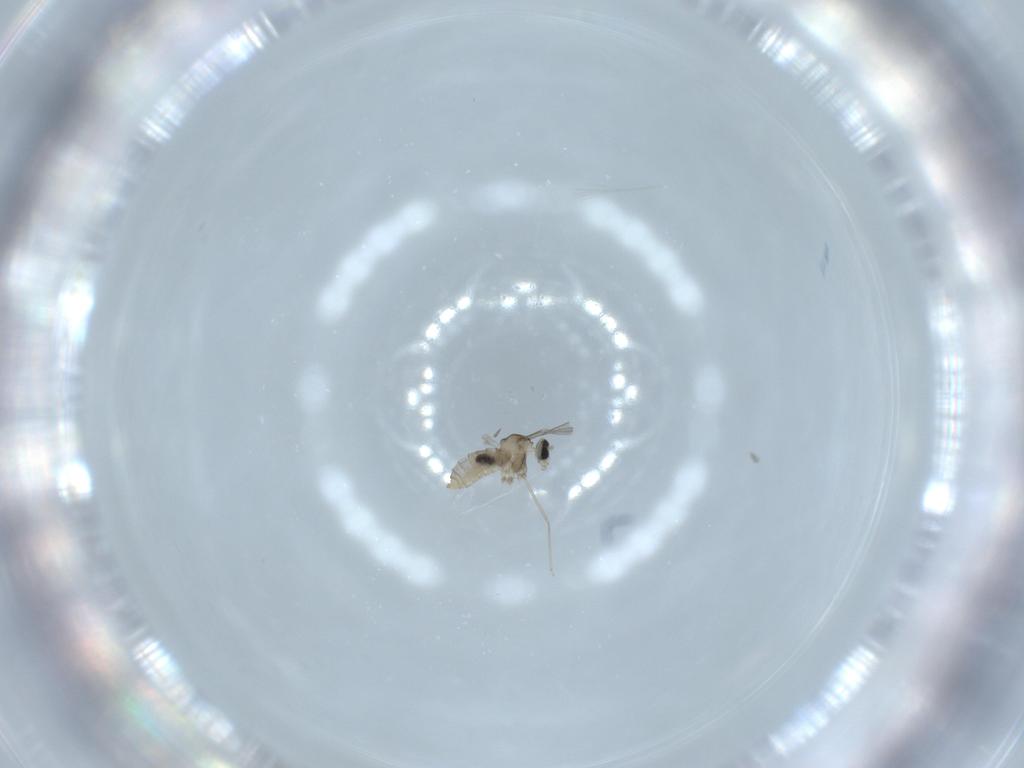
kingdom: Animalia
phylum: Arthropoda
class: Insecta
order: Diptera
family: Cecidomyiidae
